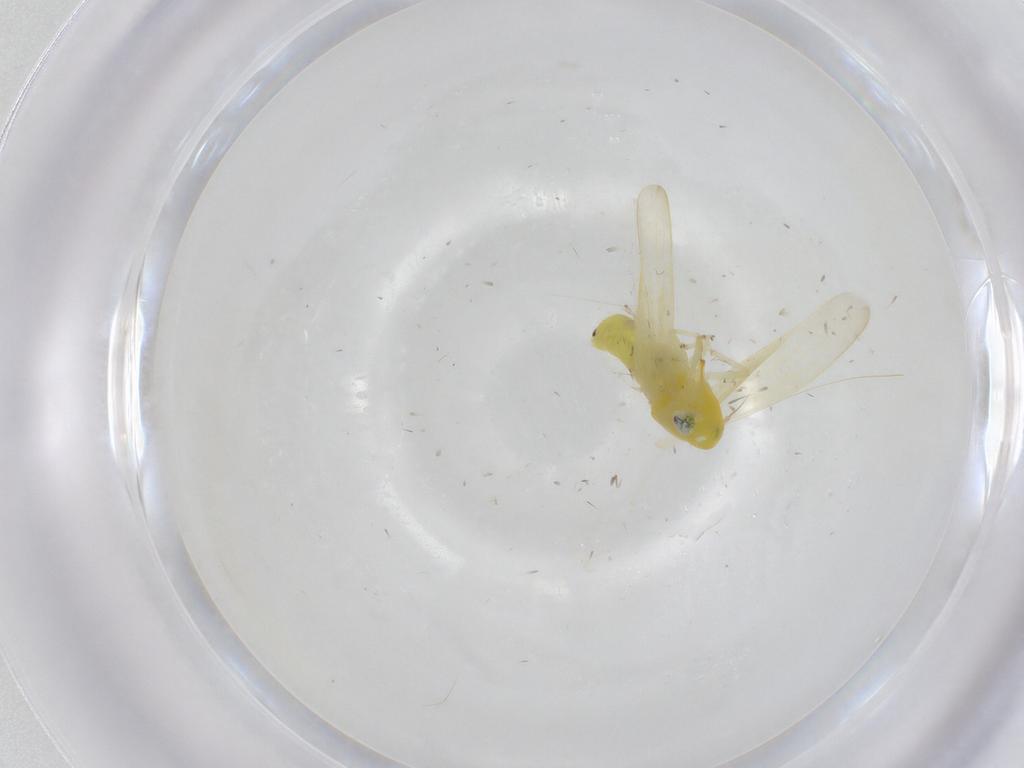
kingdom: Animalia
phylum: Arthropoda
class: Insecta
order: Hemiptera
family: Cicadellidae
